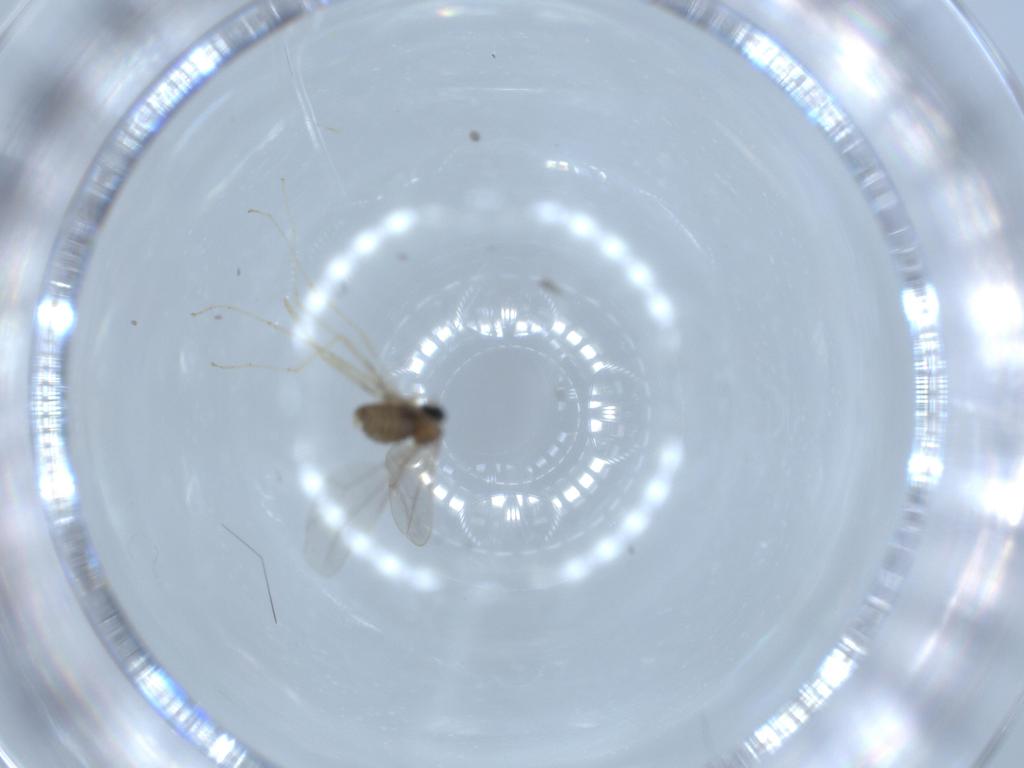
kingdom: Animalia
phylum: Arthropoda
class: Insecta
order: Diptera
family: Cecidomyiidae
